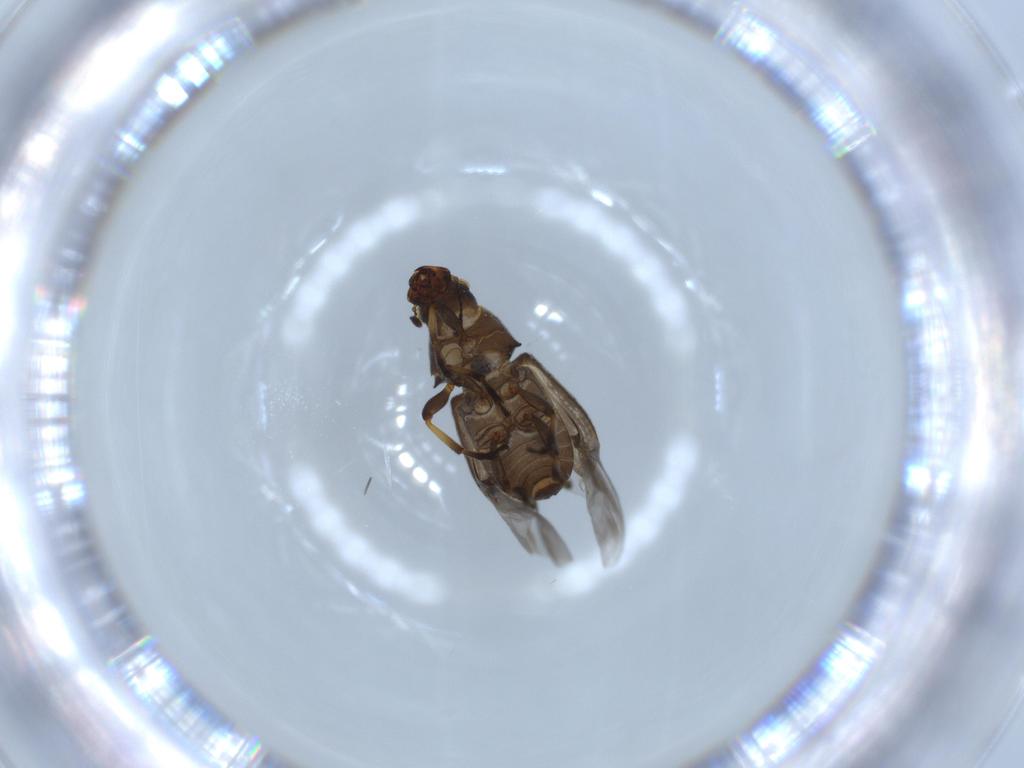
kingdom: Animalia
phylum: Arthropoda
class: Insecta
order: Coleoptera
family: Anthribidae
